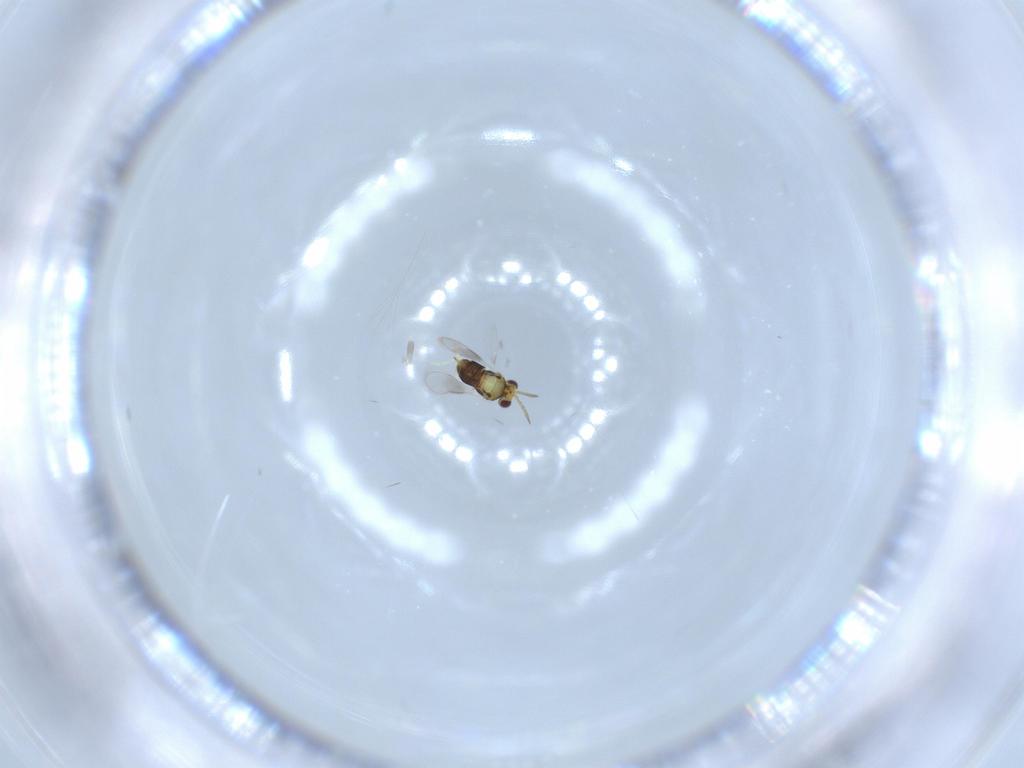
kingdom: Animalia
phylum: Arthropoda
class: Insecta
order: Hymenoptera
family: Aphelinidae
